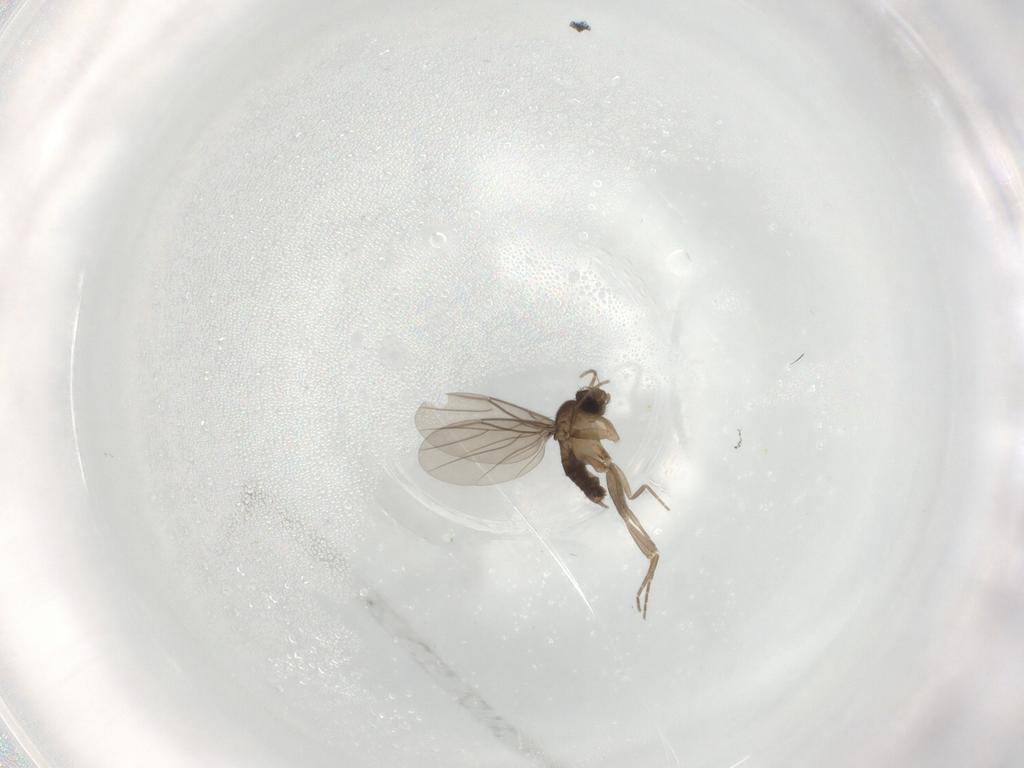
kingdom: Animalia
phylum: Arthropoda
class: Insecta
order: Diptera
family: Phoridae
